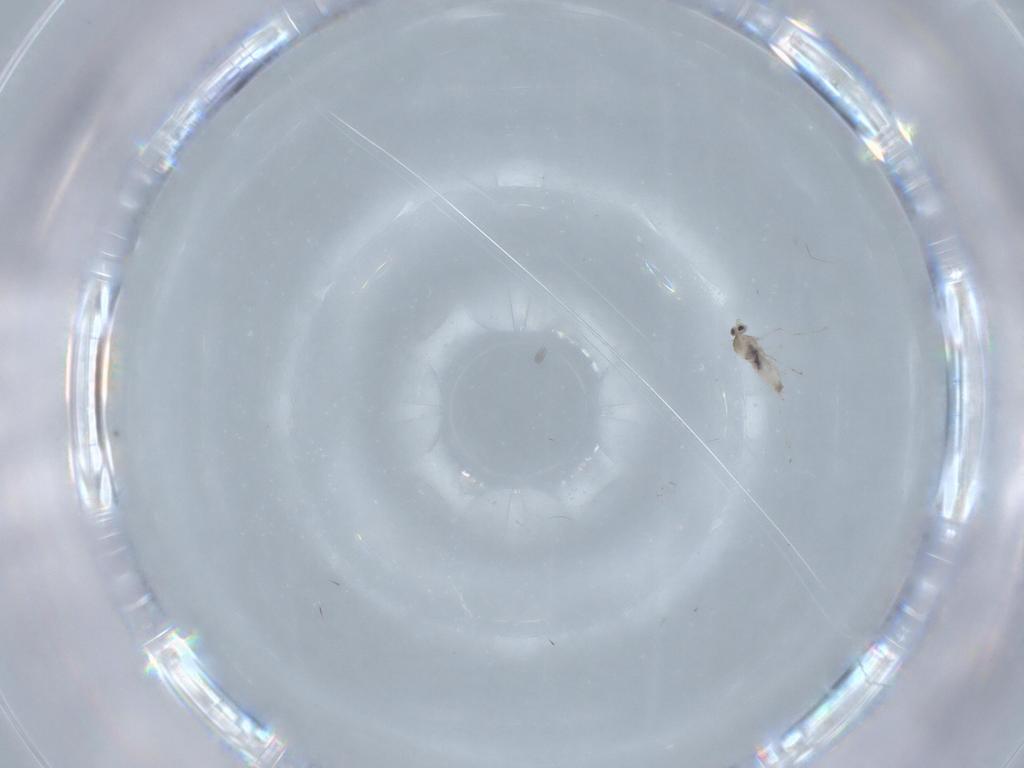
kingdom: Animalia
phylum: Arthropoda
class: Insecta
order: Diptera
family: Cecidomyiidae
